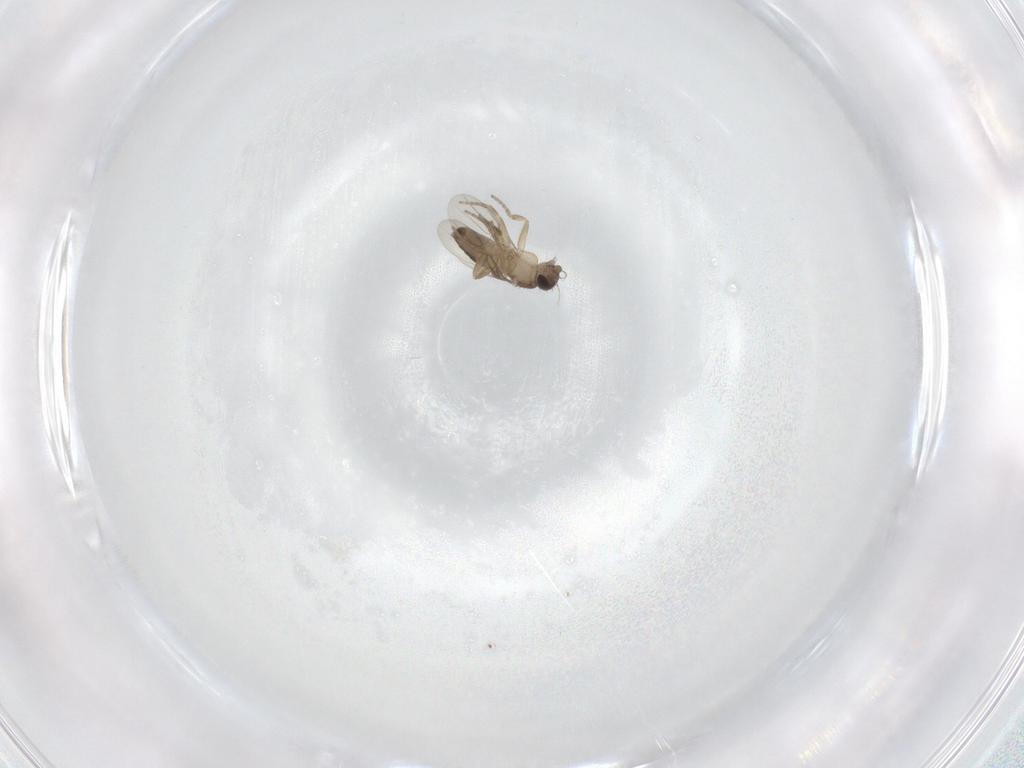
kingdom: Animalia
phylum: Arthropoda
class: Insecta
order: Diptera
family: Phoridae
